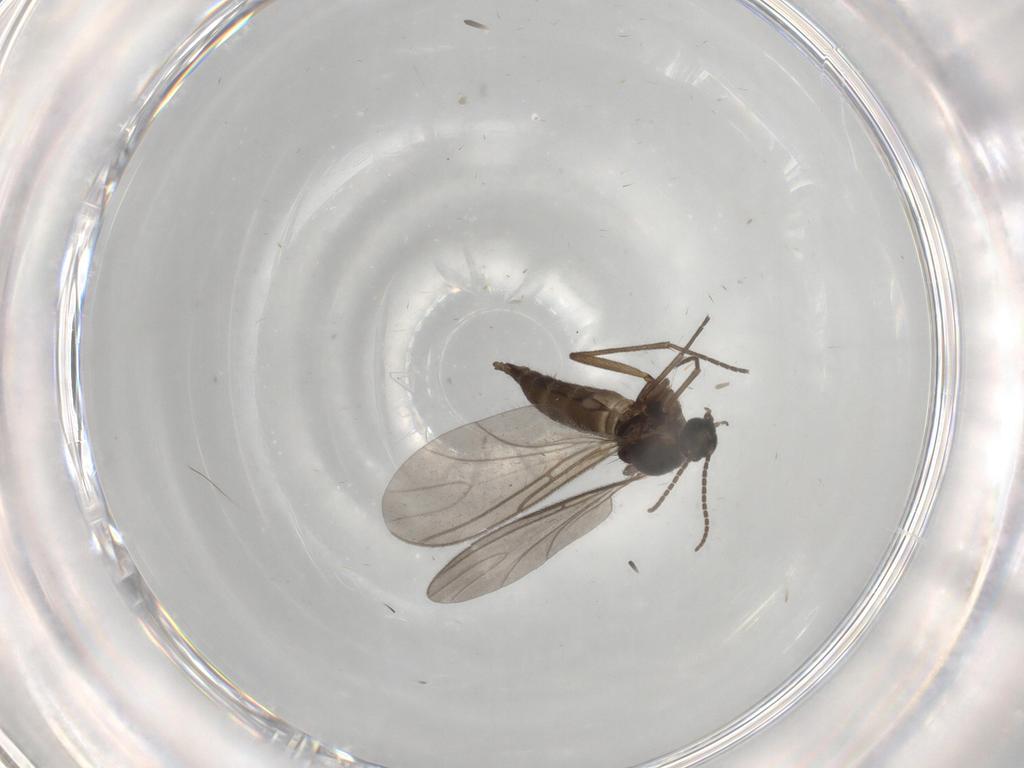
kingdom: Animalia
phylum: Arthropoda
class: Insecta
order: Diptera
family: Sciaridae
